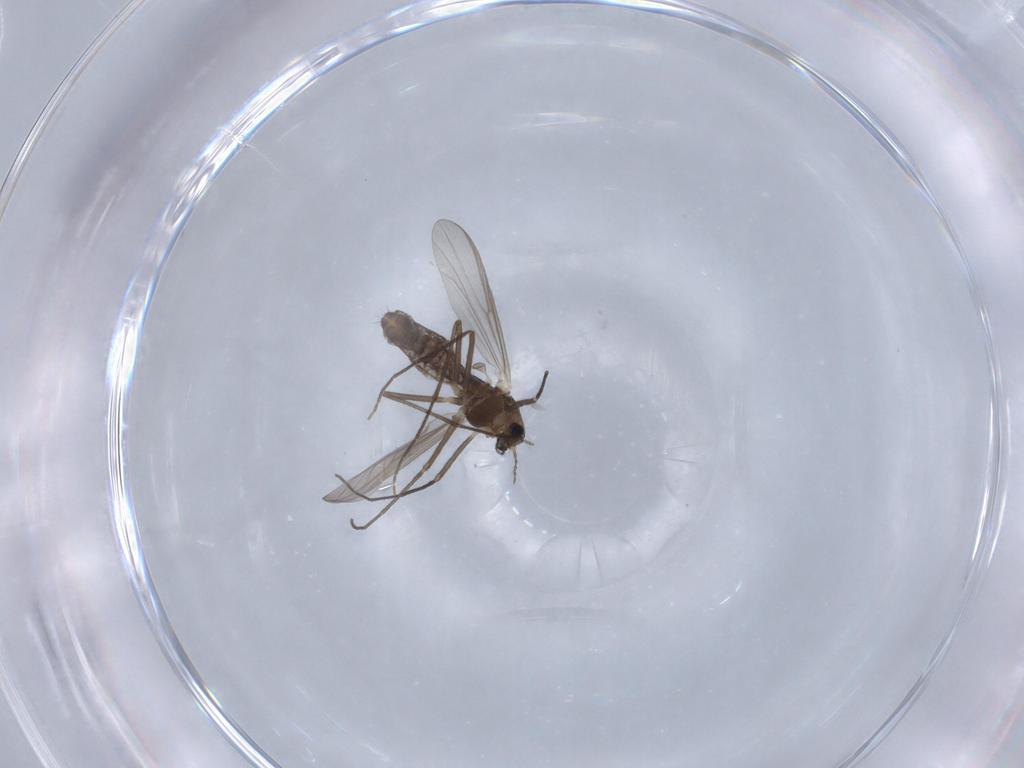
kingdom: Animalia
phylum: Arthropoda
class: Insecta
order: Diptera
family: Chironomidae
